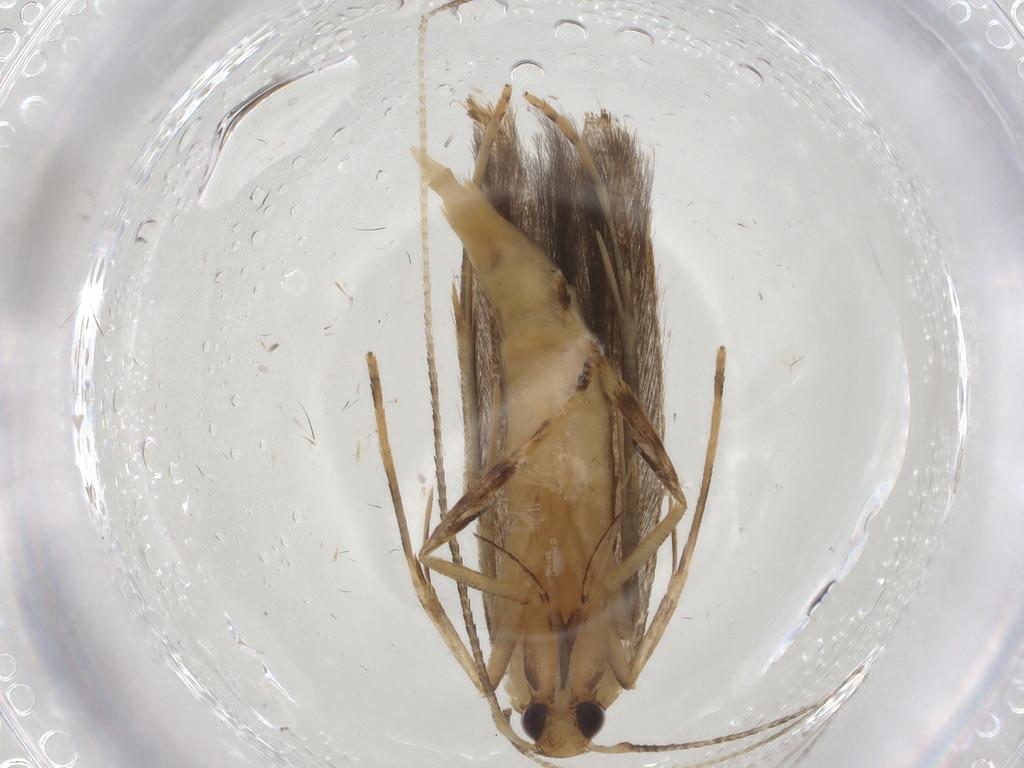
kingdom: Animalia
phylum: Arthropoda
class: Insecta
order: Lepidoptera
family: Pterolonchidae
